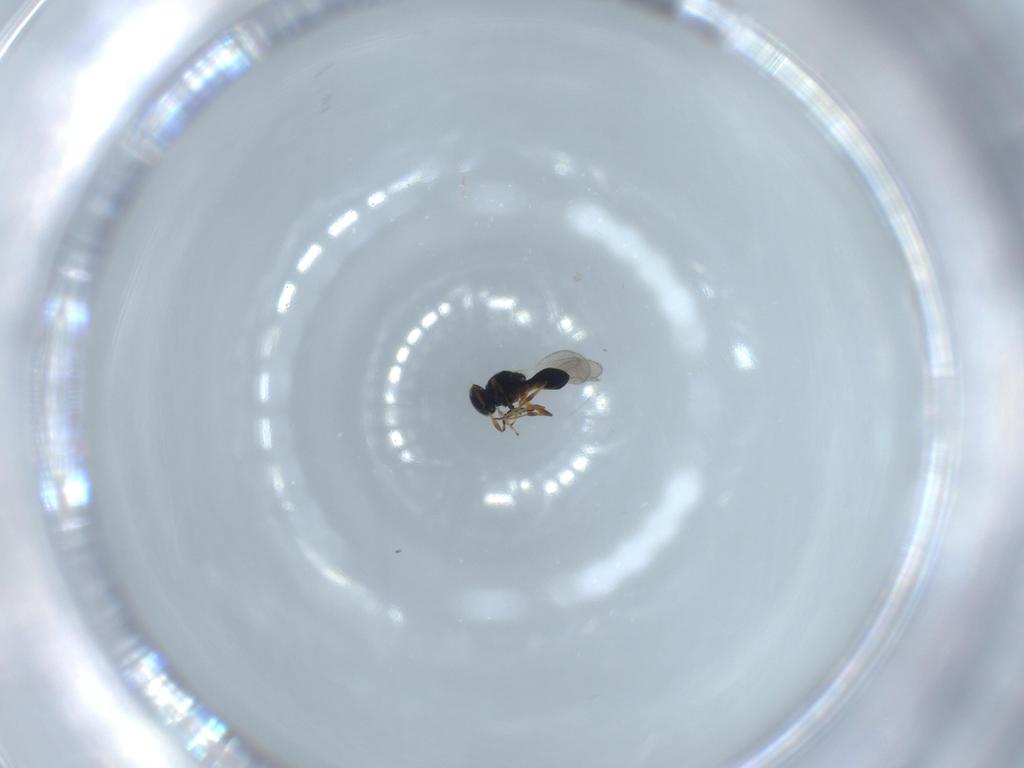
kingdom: Animalia
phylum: Arthropoda
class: Insecta
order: Hymenoptera
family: Platygastridae
